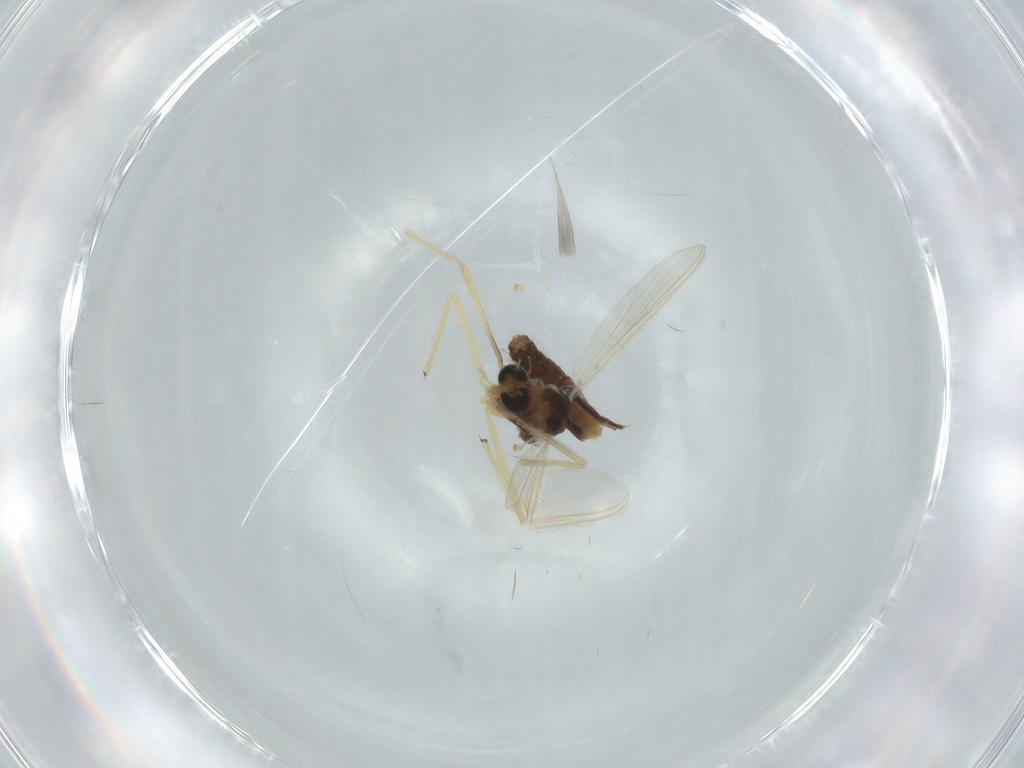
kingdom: Animalia
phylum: Arthropoda
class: Insecta
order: Diptera
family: Chironomidae
